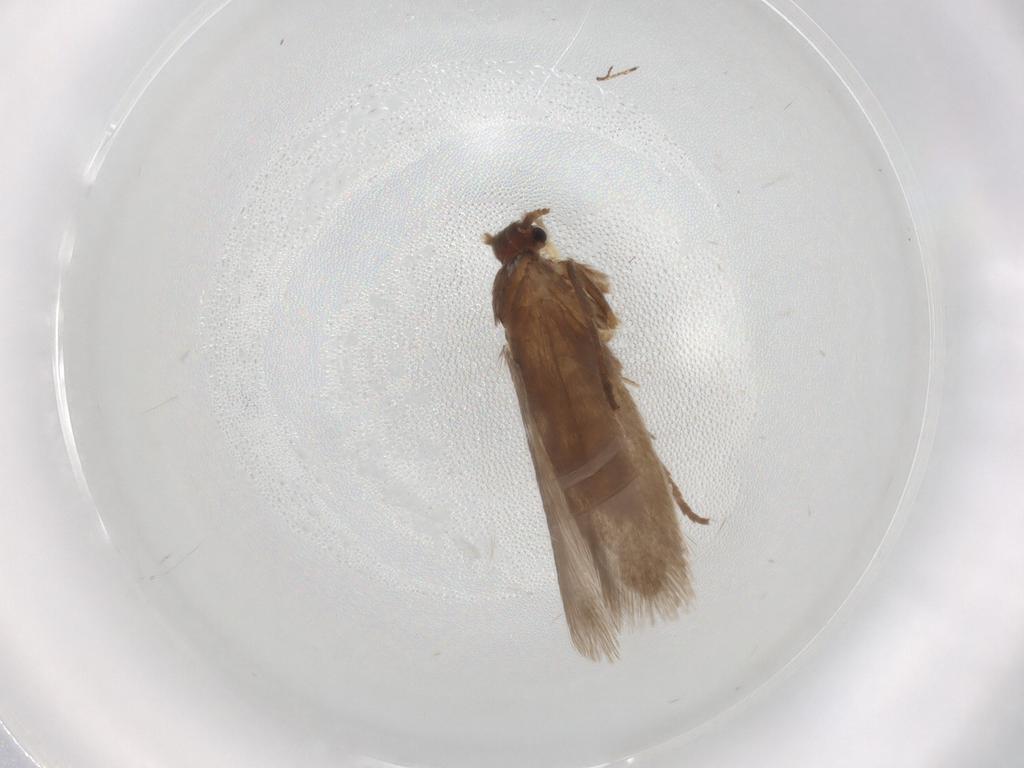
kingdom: Animalia
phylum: Arthropoda
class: Insecta
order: Lepidoptera
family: Limacodidae
